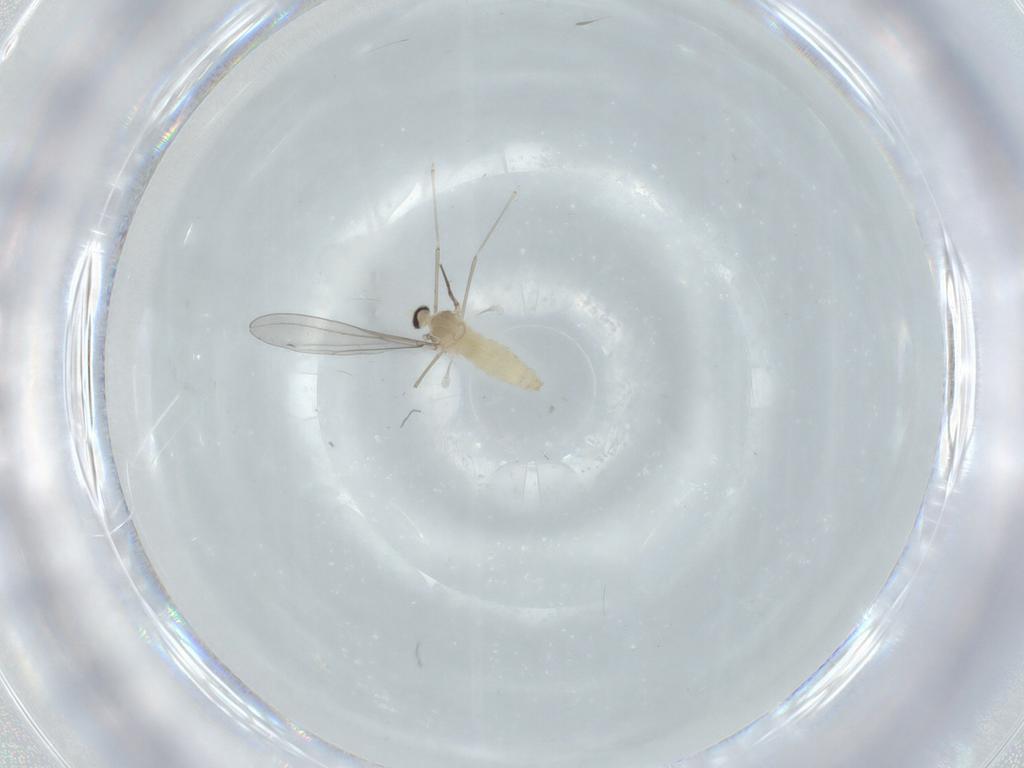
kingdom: Animalia
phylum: Arthropoda
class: Insecta
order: Diptera
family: Cecidomyiidae
